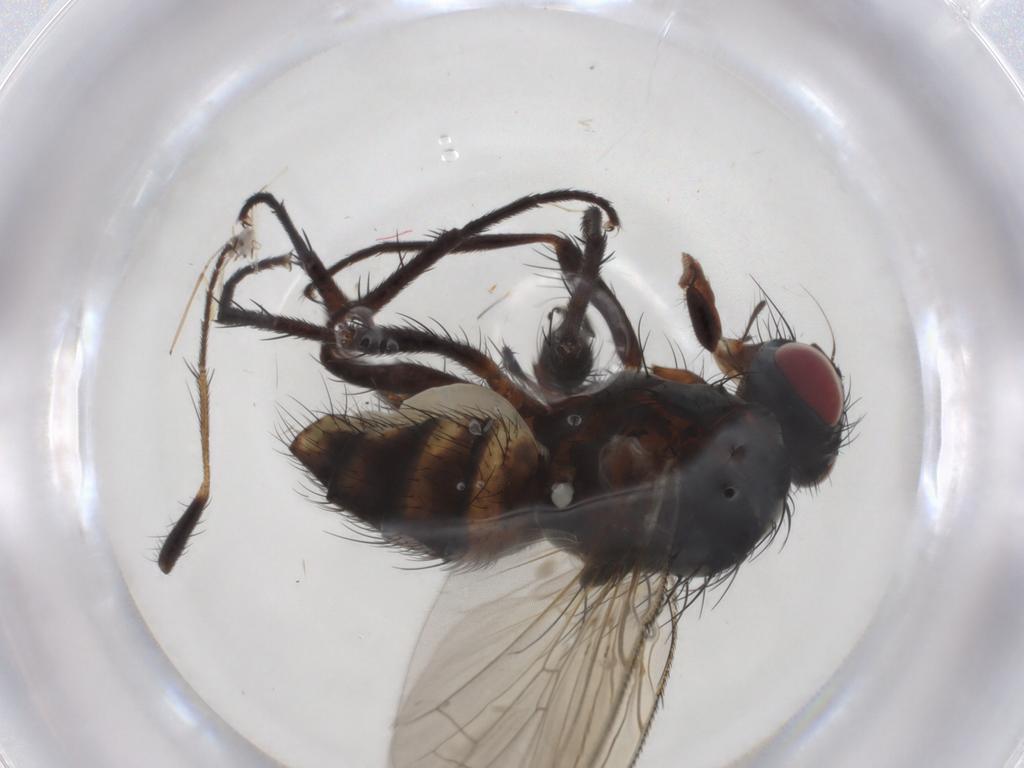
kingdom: Animalia
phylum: Arthropoda
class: Insecta
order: Diptera
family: Anthomyiidae
